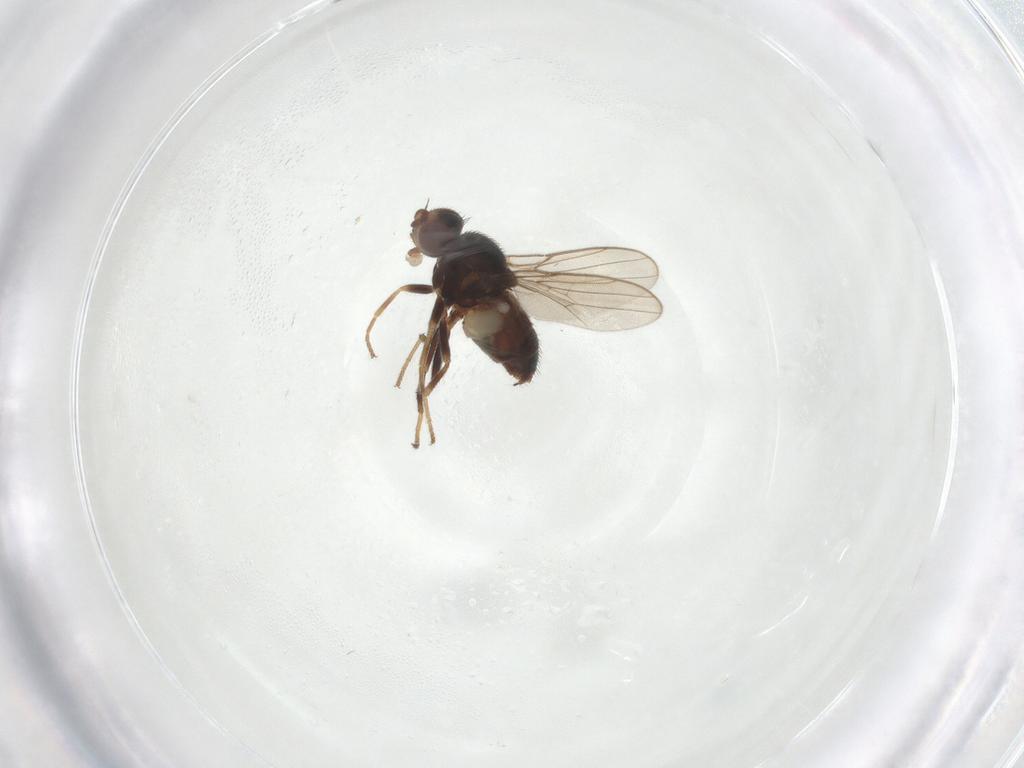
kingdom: Animalia
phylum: Arthropoda
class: Insecta
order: Diptera
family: Chloropidae
